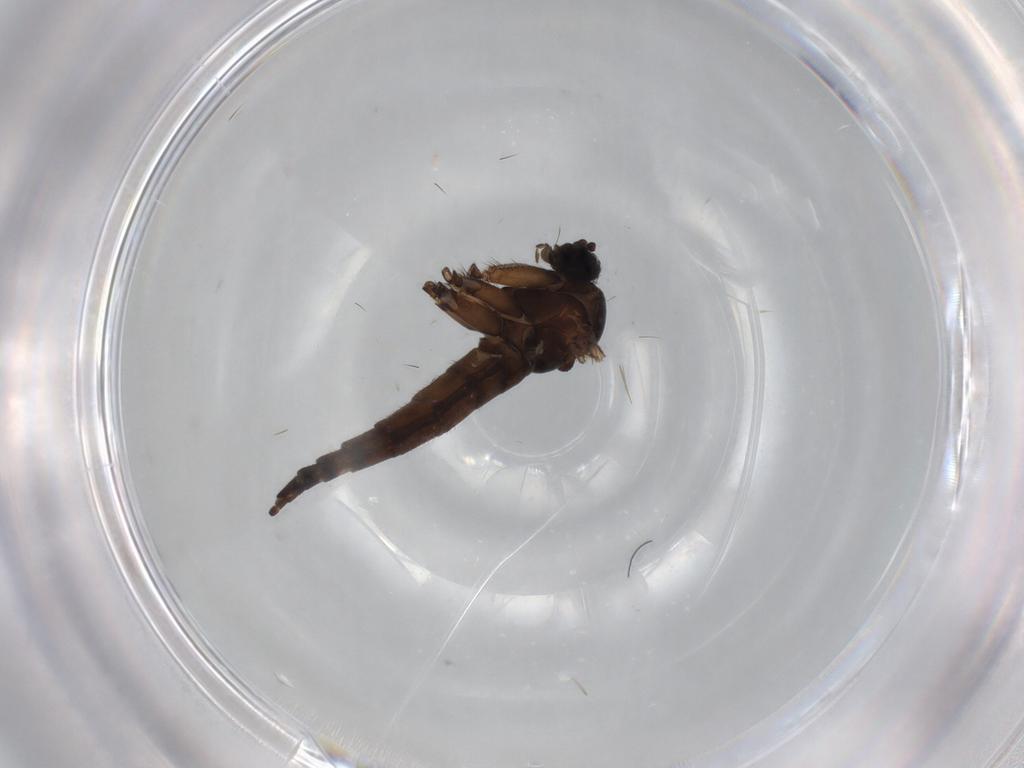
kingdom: Animalia
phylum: Arthropoda
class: Insecta
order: Diptera
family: Sciaridae
